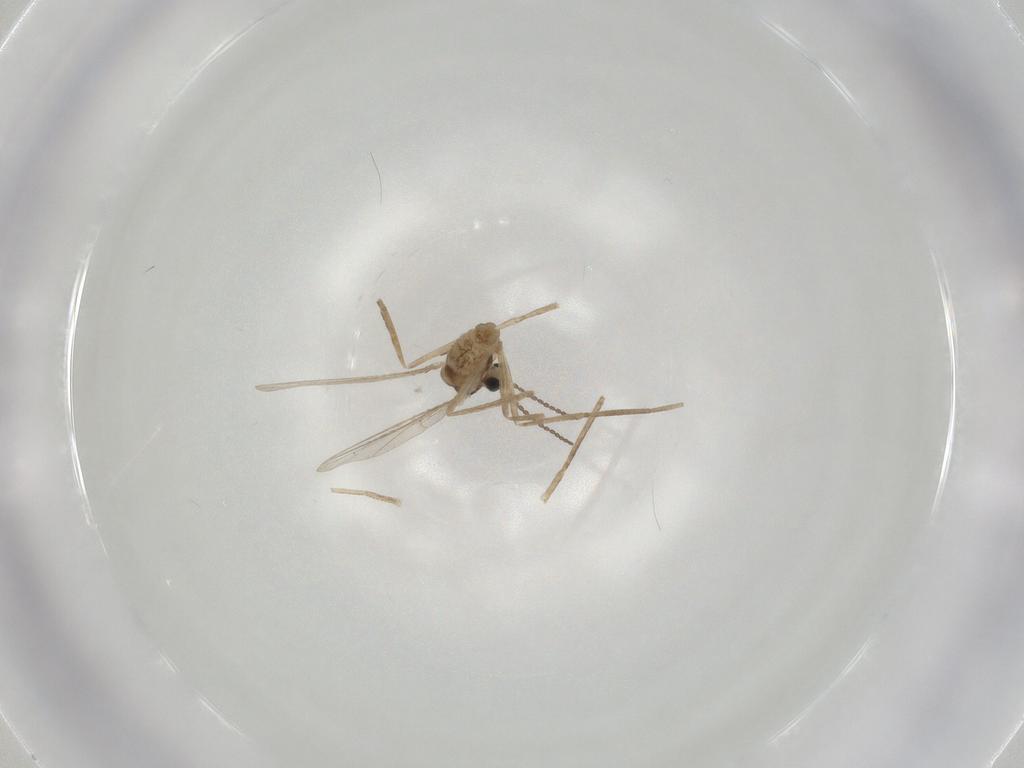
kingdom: Animalia
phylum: Arthropoda
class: Insecta
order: Diptera
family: Cecidomyiidae
